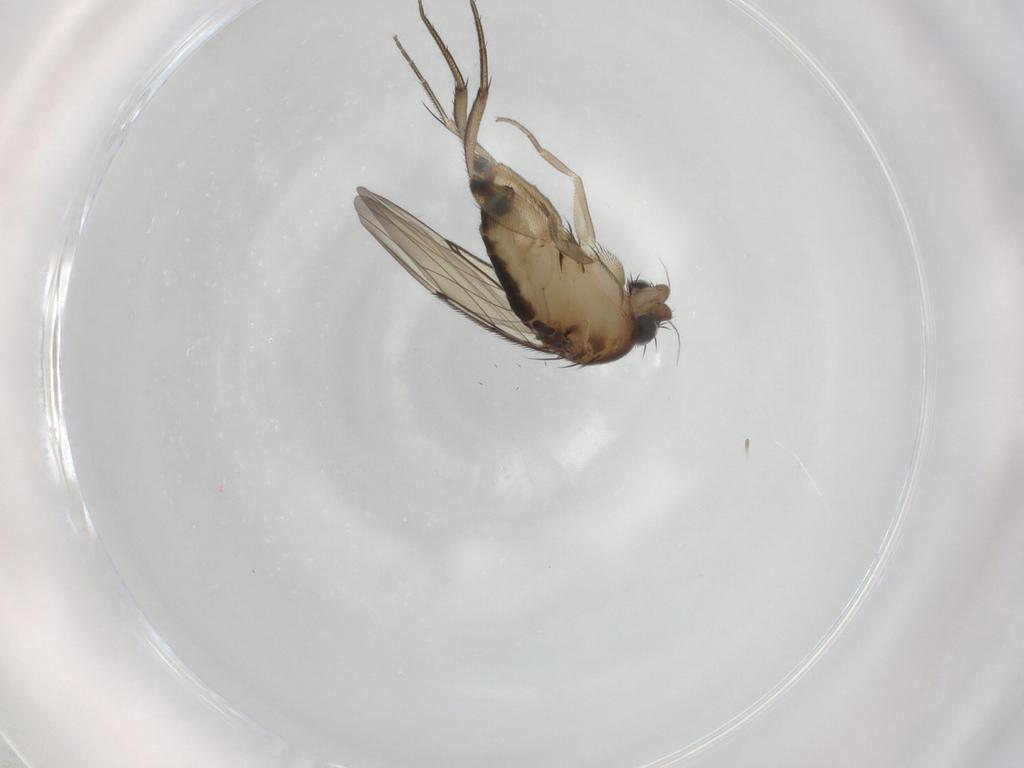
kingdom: Animalia
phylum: Arthropoda
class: Insecta
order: Diptera
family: Phoridae
